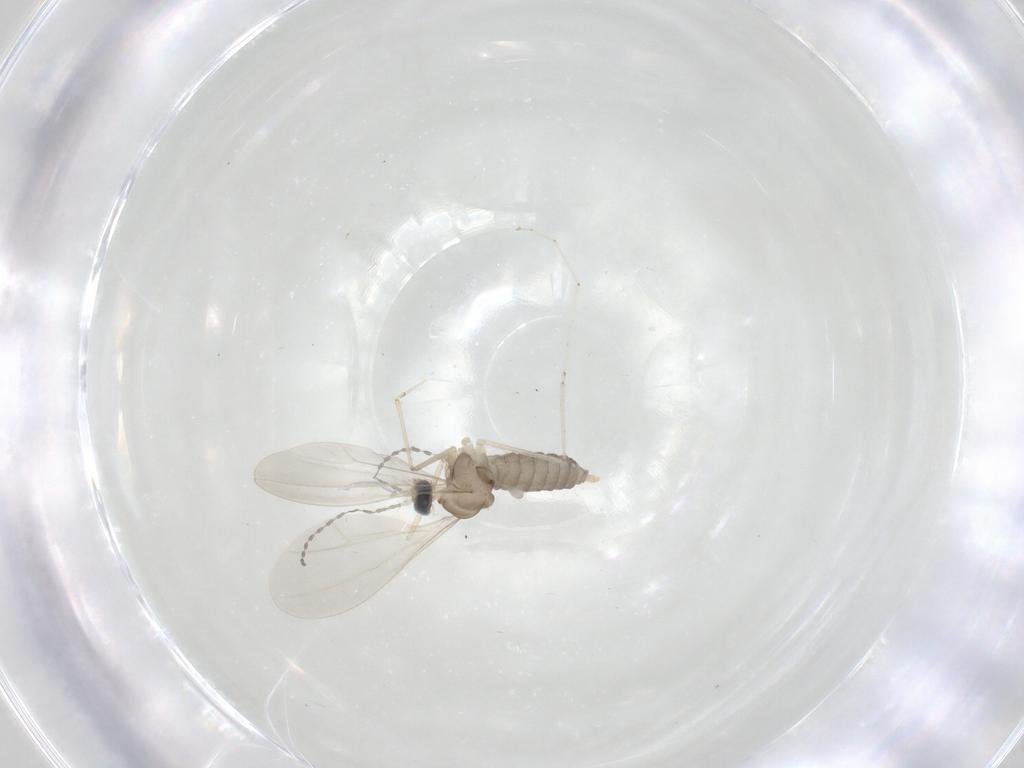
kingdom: Animalia
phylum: Arthropoda
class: Insecta
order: Diptera
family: Cecidomyiidae
